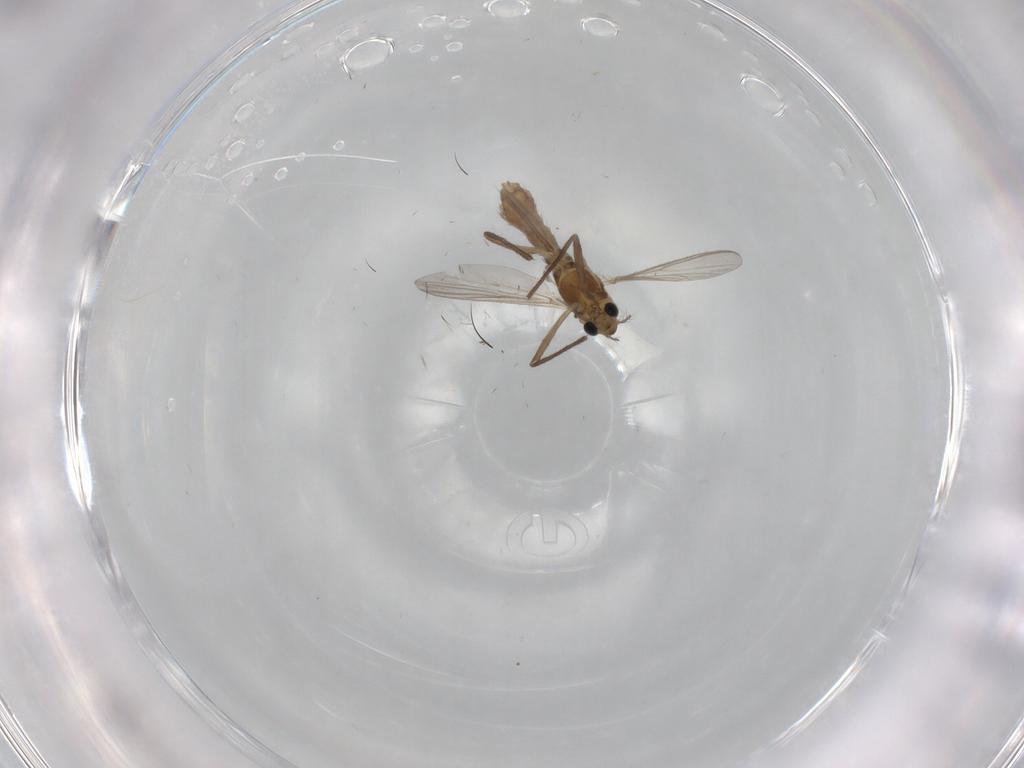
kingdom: Animalia
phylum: Arthropoda
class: Insecta
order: Diptera
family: Chironomidae
